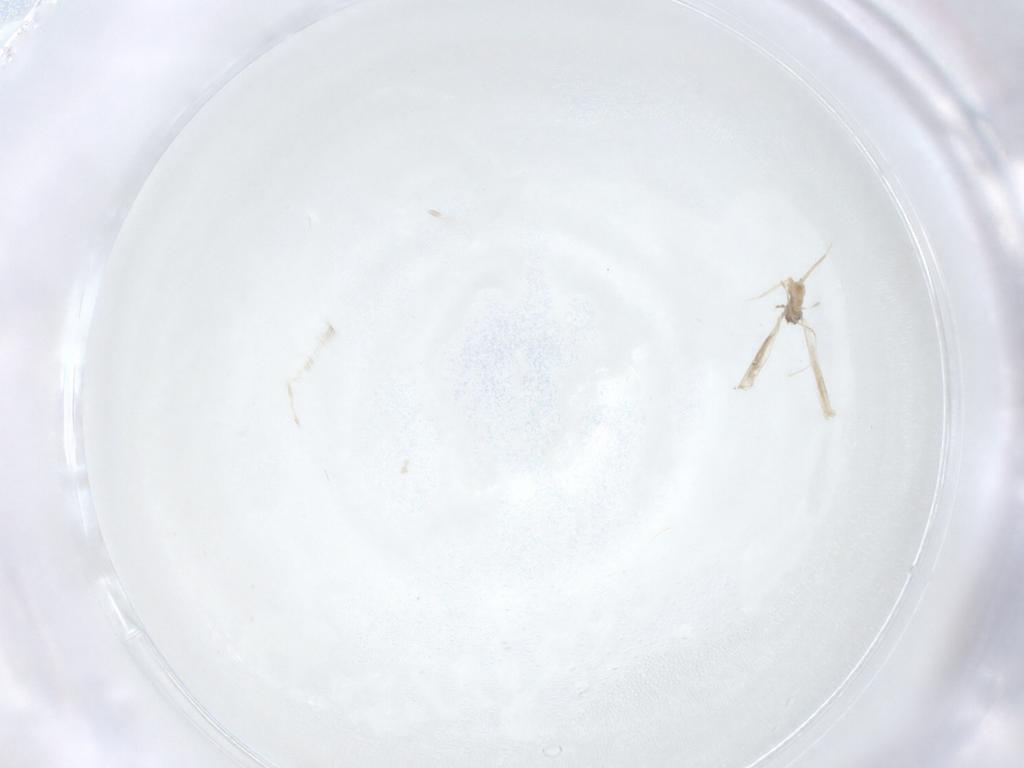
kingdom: Animalia
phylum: Arthropoda
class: Insecta
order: Diptera
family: Cecidomyiidae
